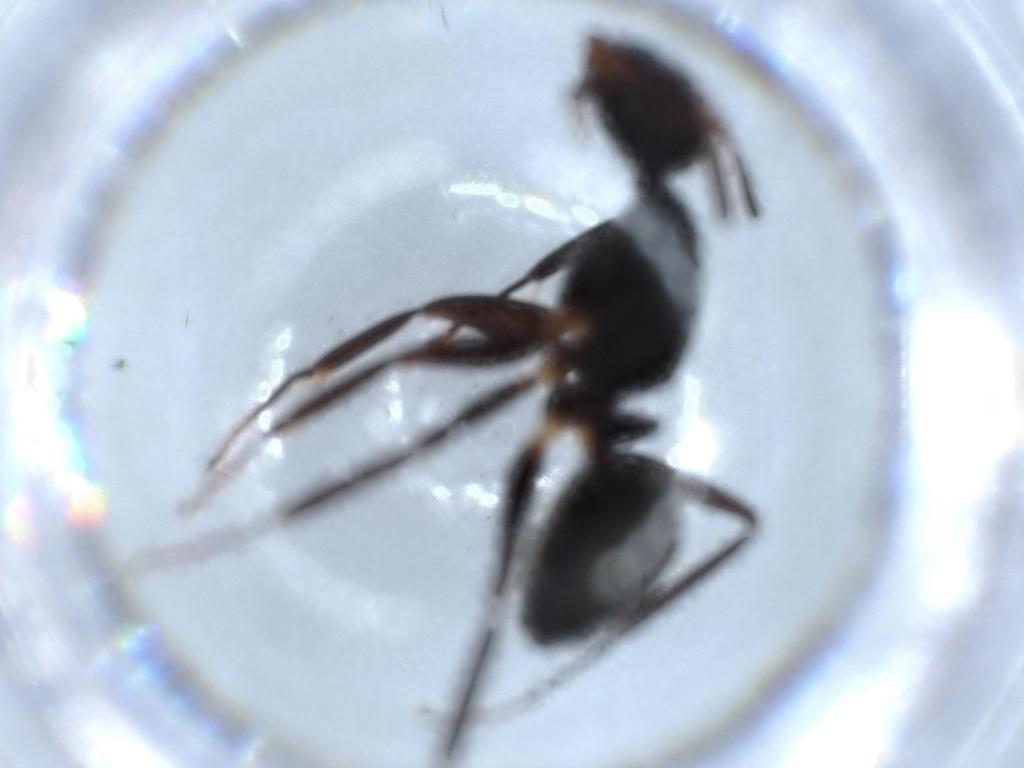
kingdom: Animalia
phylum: Arthropoda
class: Insecta
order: Hymenoptera
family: Formicidae
